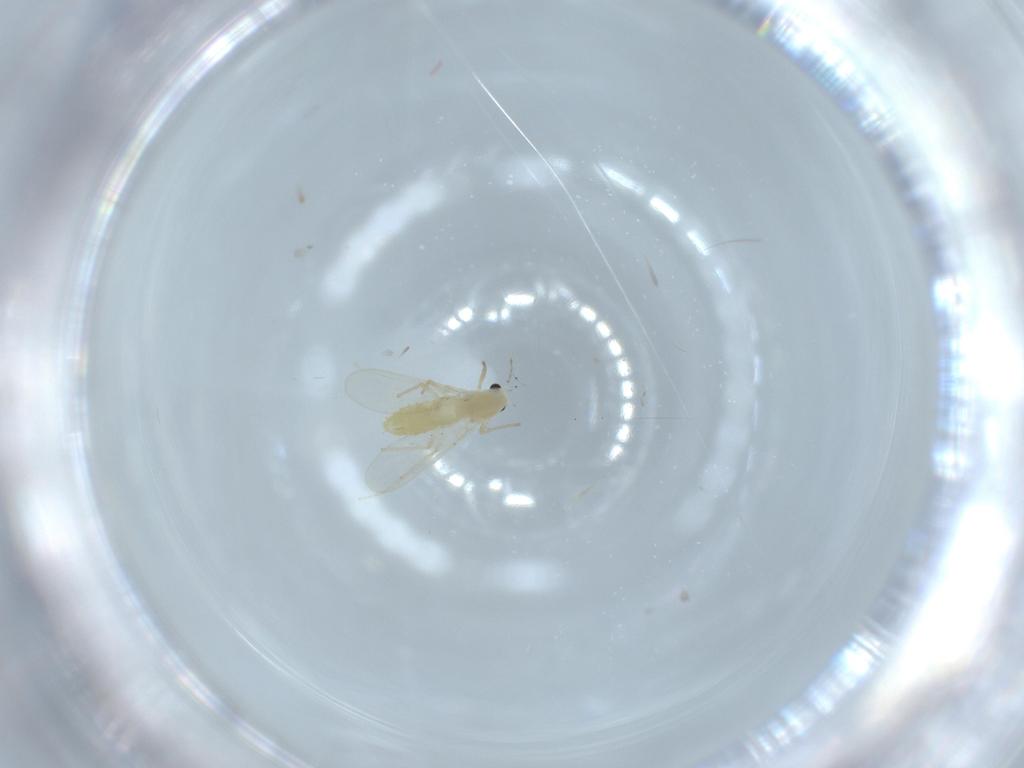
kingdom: Animalia
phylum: Arthropoda
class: Insecta
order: Diptera
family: Chironomidae
